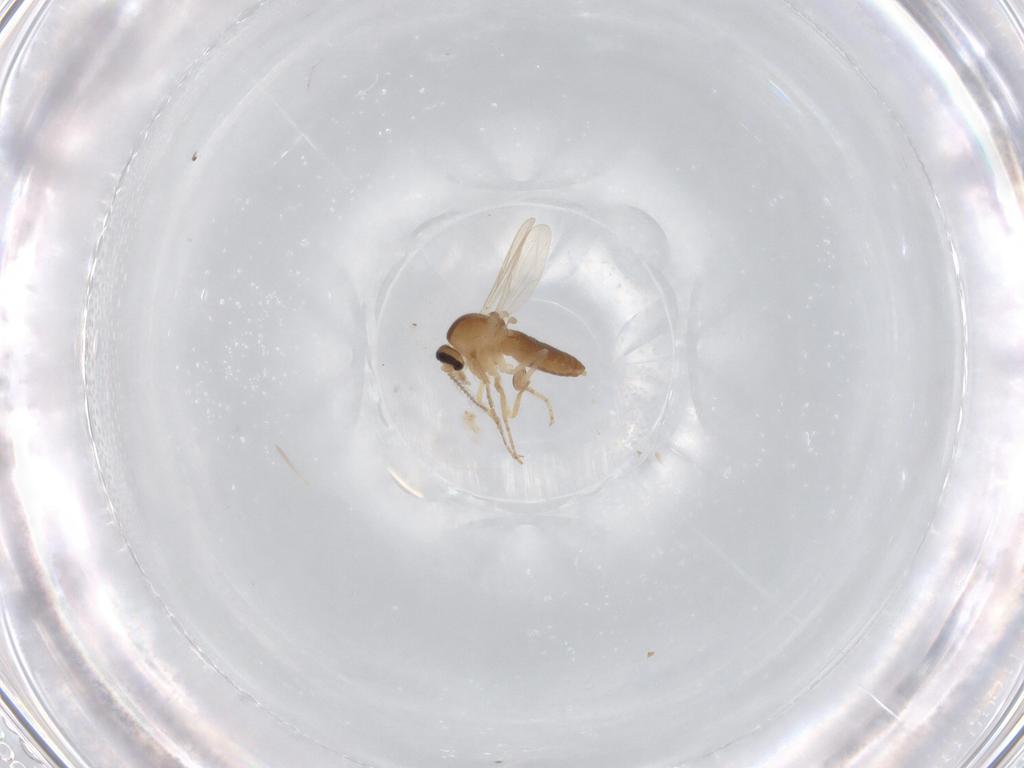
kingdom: Animalia
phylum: Arthropoda
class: Insecta
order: Diptera
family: Ceratopogonidae
